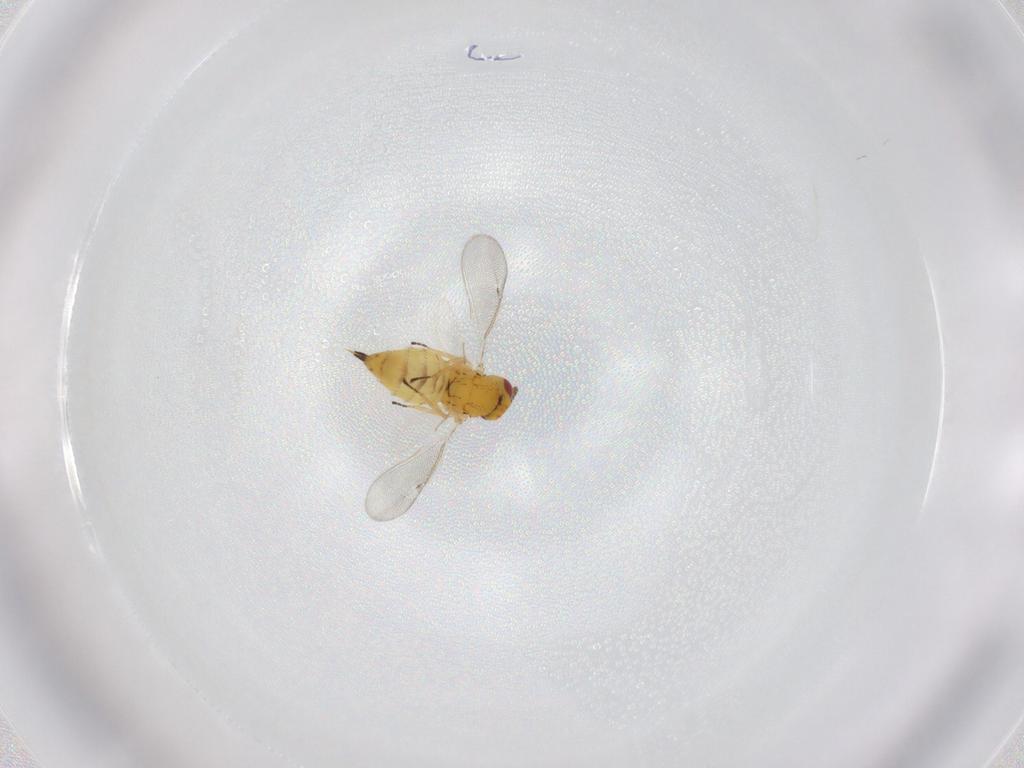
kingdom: Animalia
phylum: Arthropoda
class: Insecta
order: Hymenoptera
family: Eulophidae
